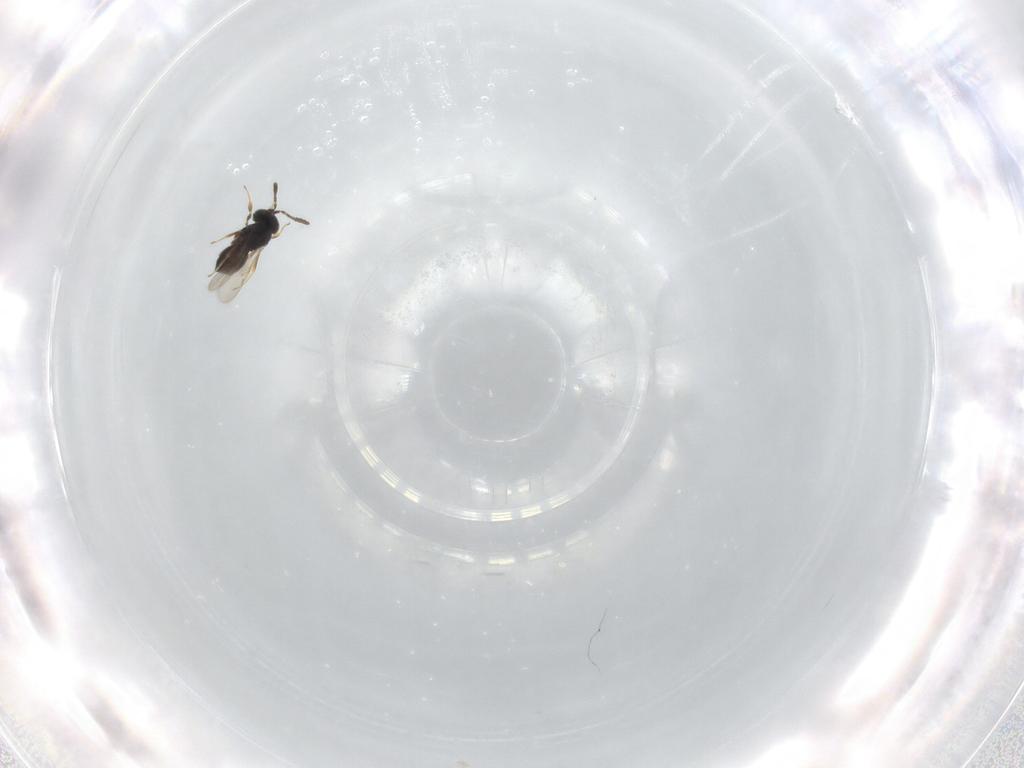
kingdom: Animalia
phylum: Arthropoda
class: Insecta
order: Hymenoptera
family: Scelionidae
